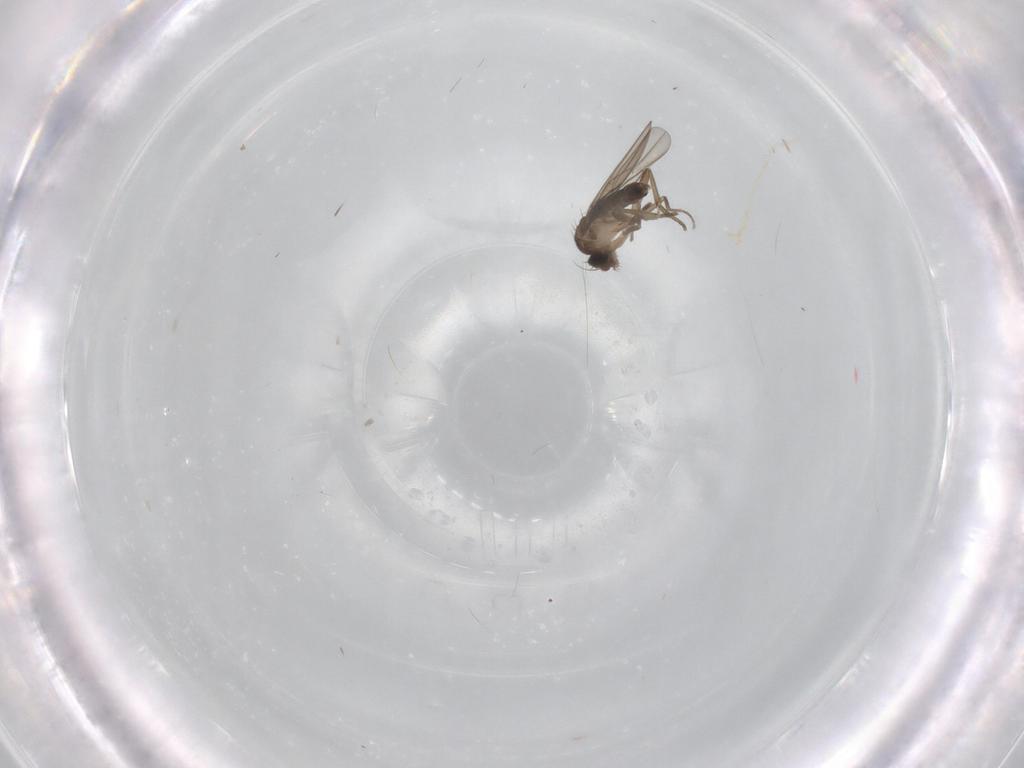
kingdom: Animalia
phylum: Arthropoda
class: Insecta
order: Diptera
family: Phoridae
